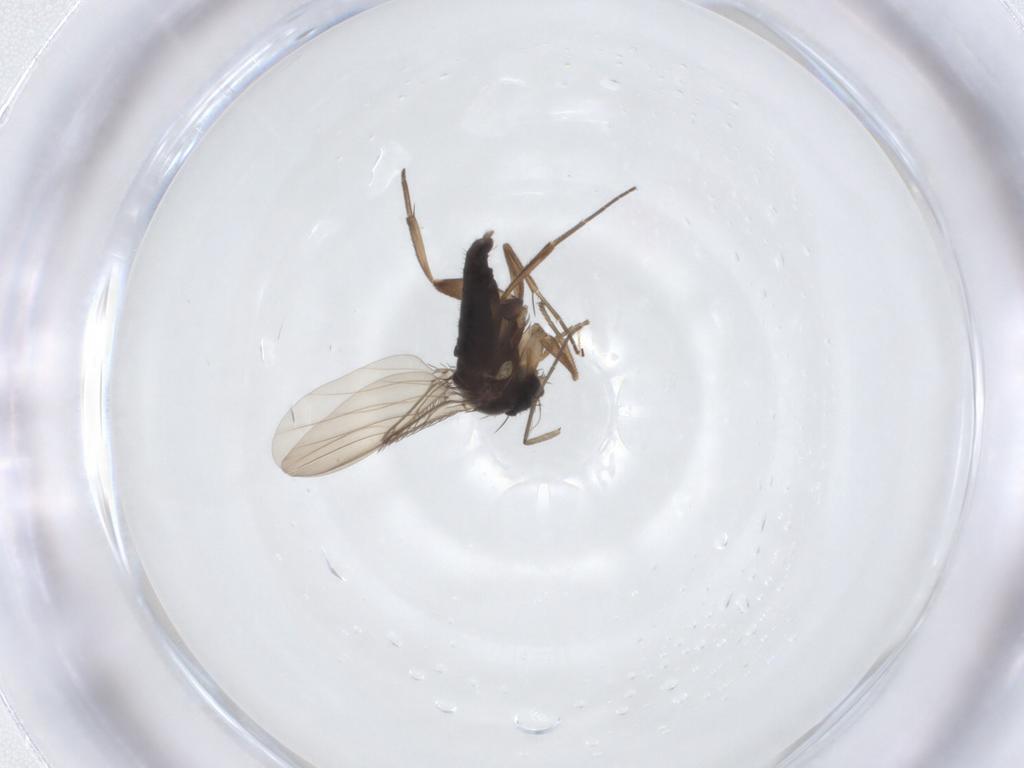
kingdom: Animalia
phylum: Arthropoda
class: Insecta
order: Diptera
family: Phoridae
